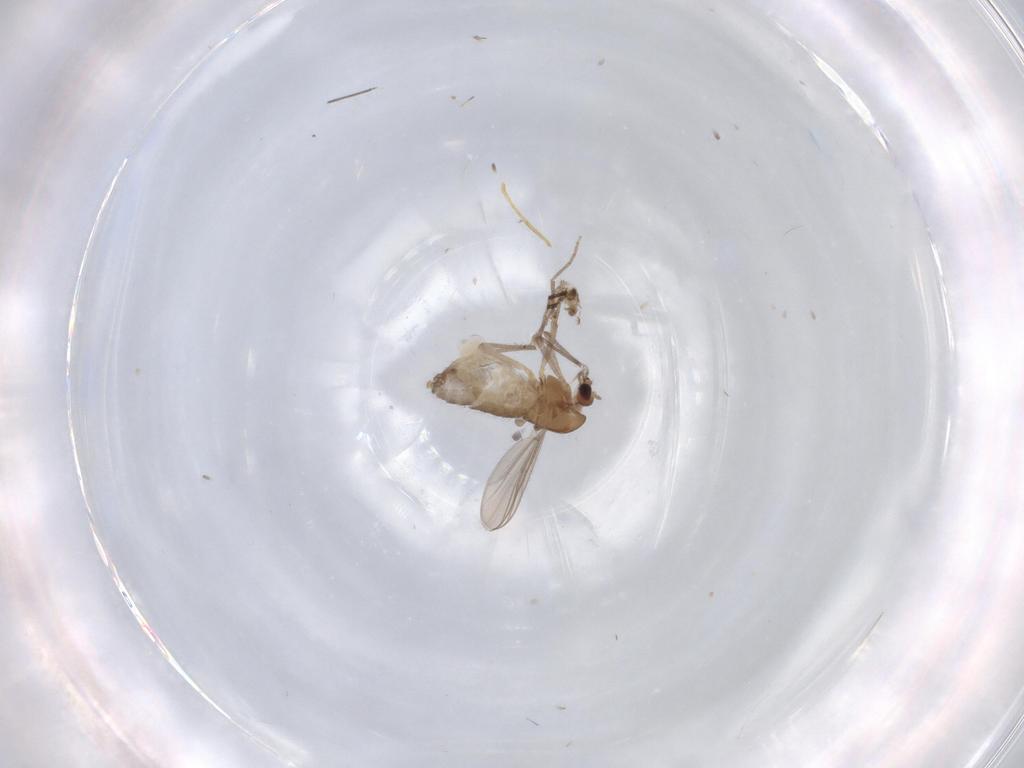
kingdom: Animalia
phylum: Arthropoda
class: Insecta
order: Diptera
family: Chironomidae
